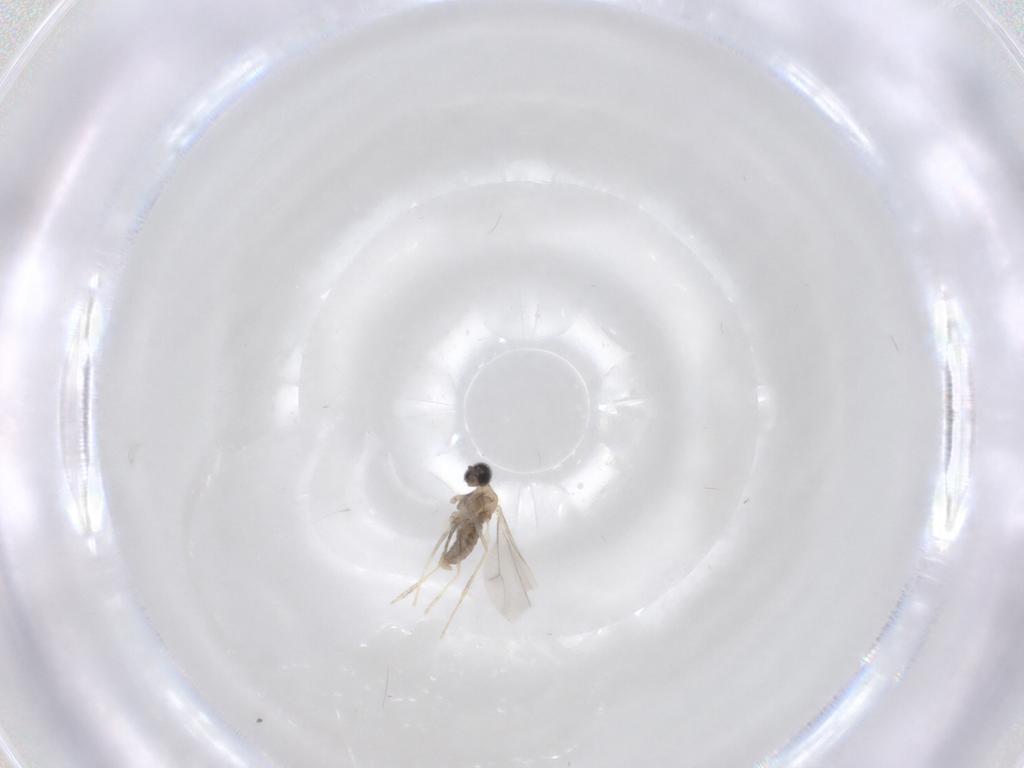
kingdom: Animalia
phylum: Arthropoda
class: Insecta
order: Diptera
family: Cecidomyiidae
